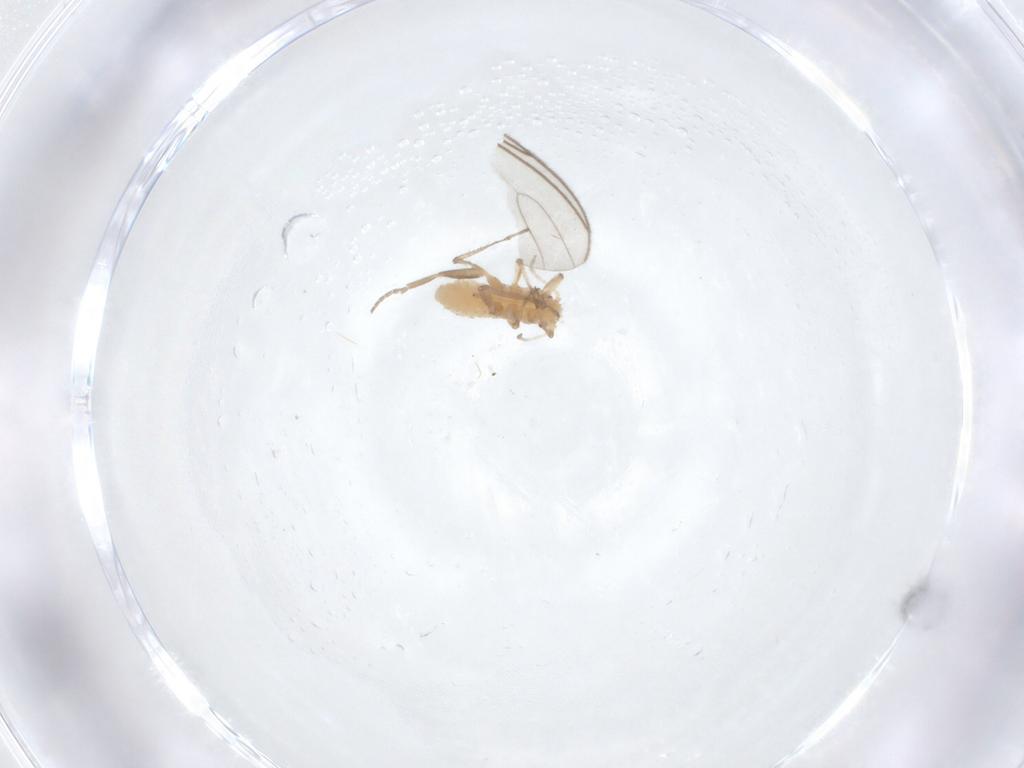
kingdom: Animalia
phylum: Arthropoda
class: Insecta
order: Hemiptera
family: Aphididae
